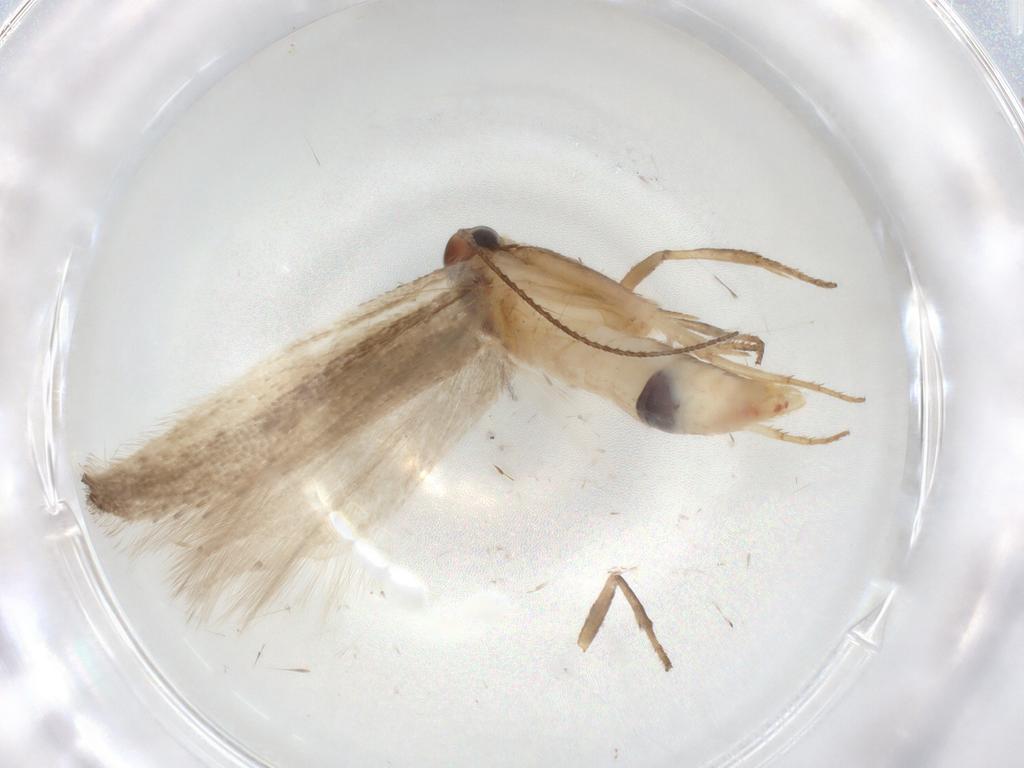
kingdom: Animalia
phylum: Arthropoda
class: Insecta
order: Lepidoptera
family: Gelechiidae
